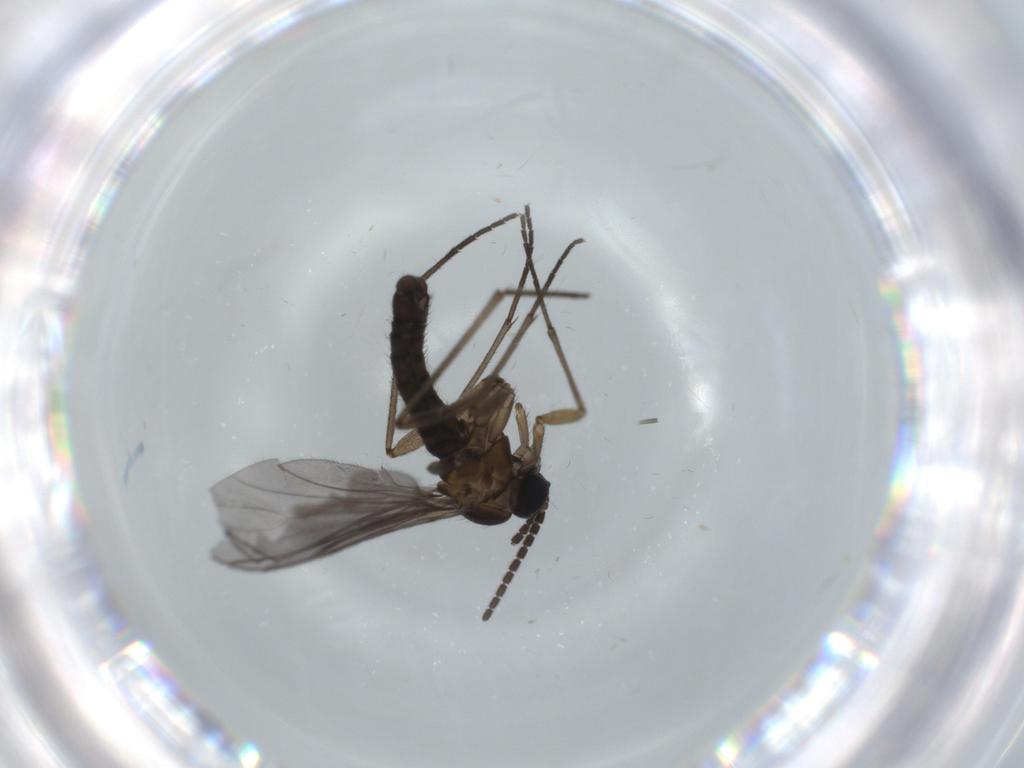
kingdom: Animalia
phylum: Arthropoda
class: Insecta
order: Diptera
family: Sciaridae
